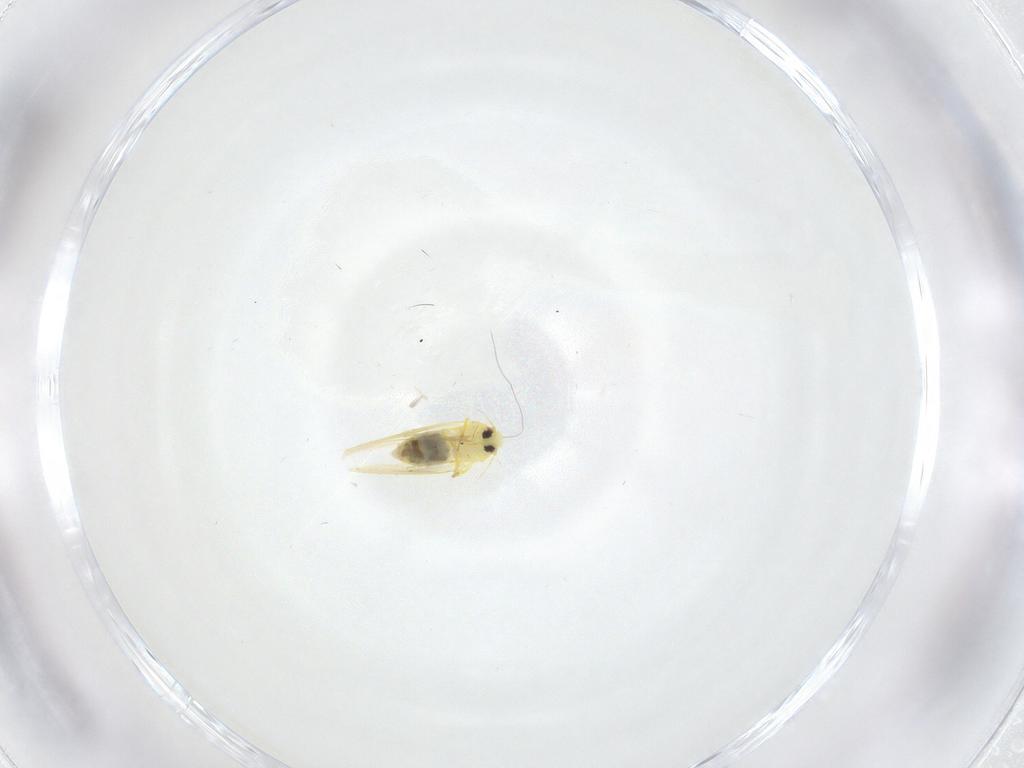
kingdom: Animalia
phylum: Arthropoda
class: Insecta
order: Hemiptera
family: Aleyrodidae
